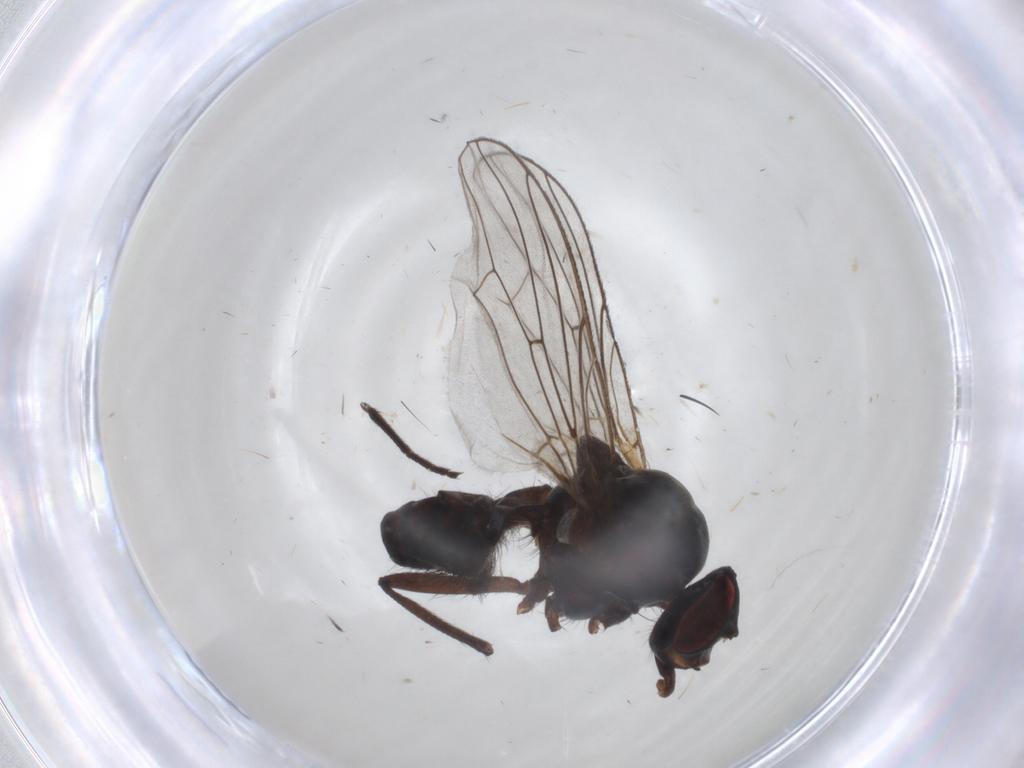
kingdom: Animalia
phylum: Arthropoda
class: Insecta
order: Diptera
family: Anthomyiidae
